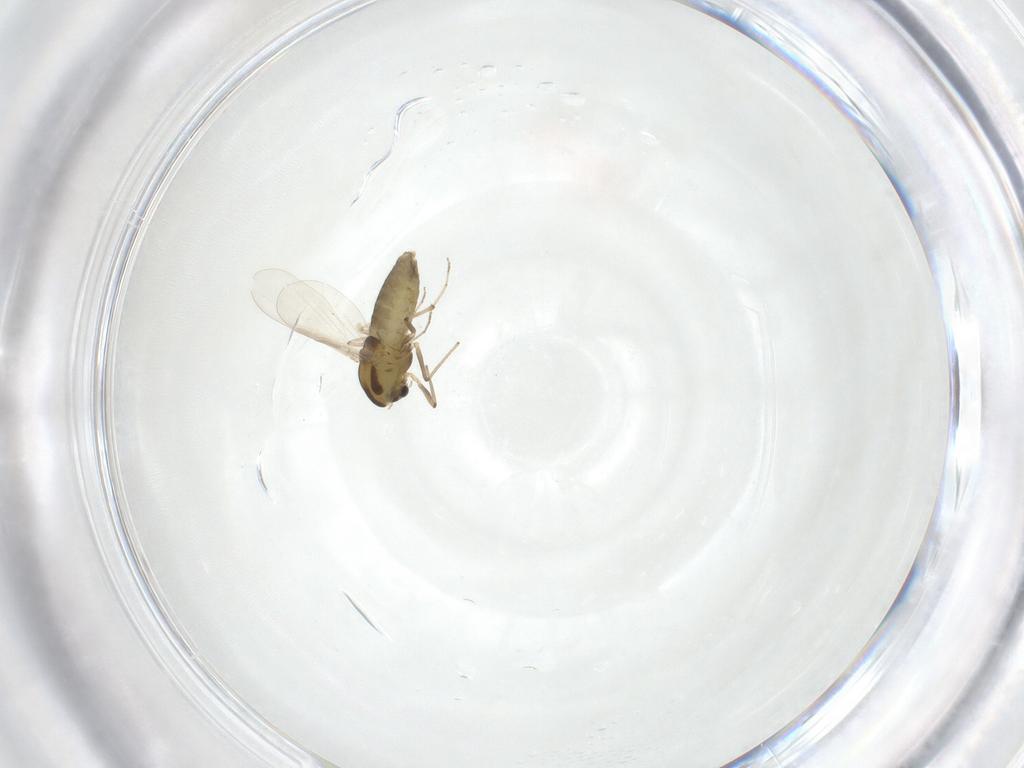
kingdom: Animalia
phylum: Arthropoda
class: Insecta
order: Diptera
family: Chironomidae
